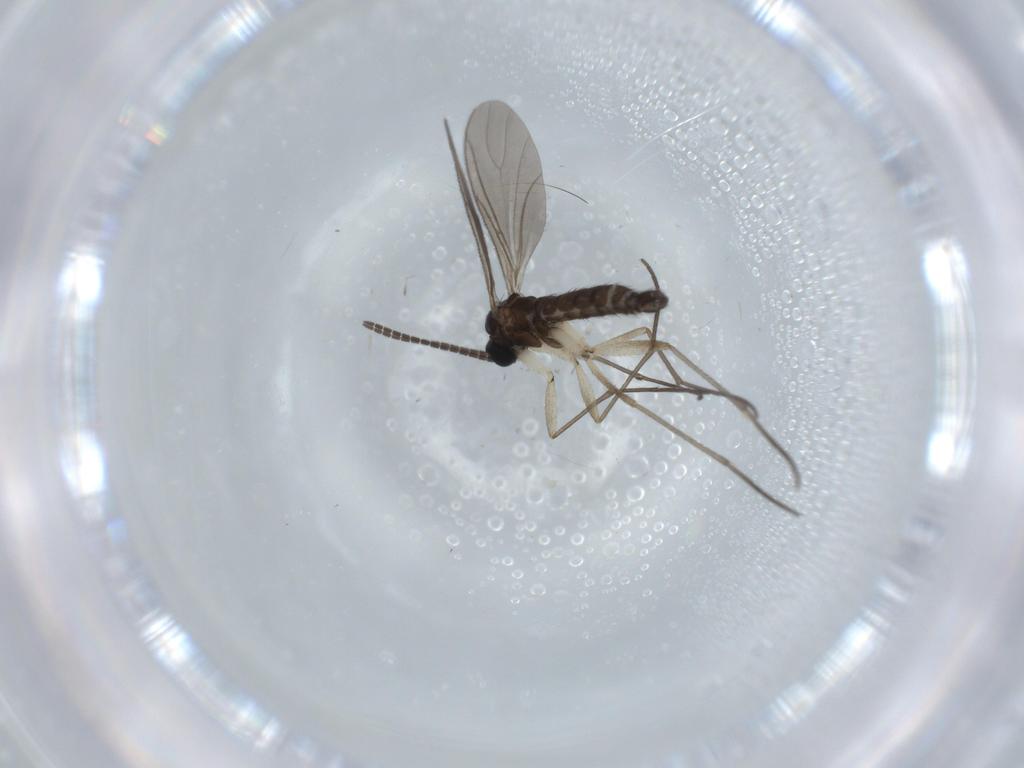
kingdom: Animalia
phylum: Arthropoda
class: Insecta
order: Diptera
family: Sciaridae
